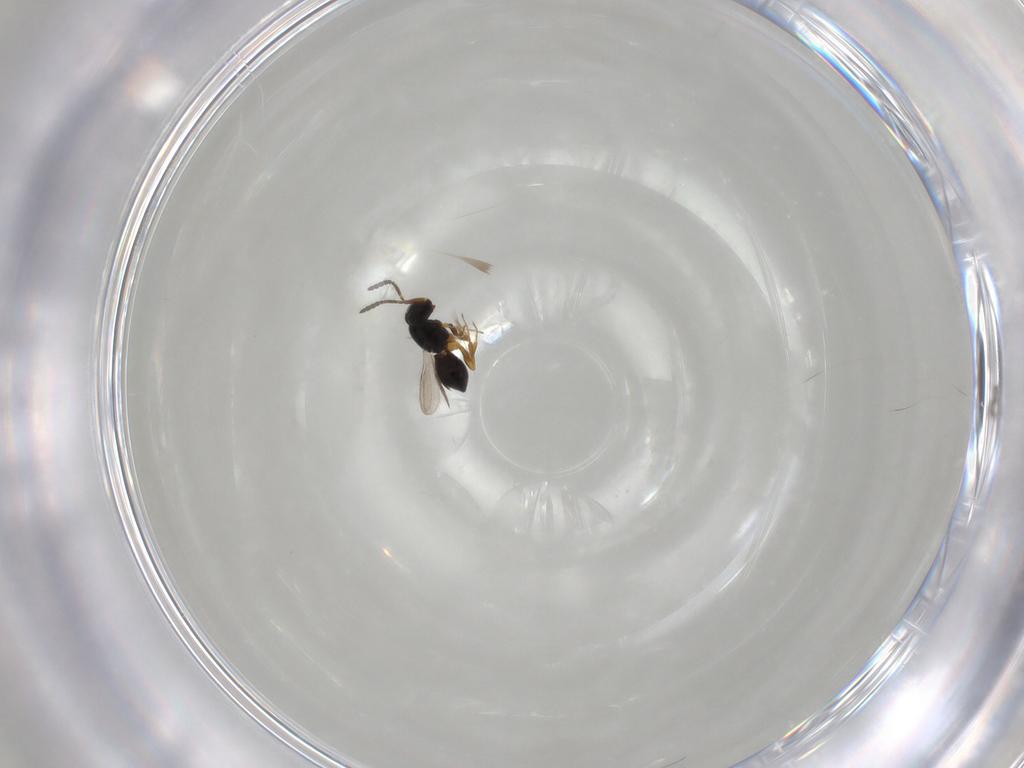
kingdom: Animalia
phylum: Arthropoda
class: Insecta
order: Hymenoptera
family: Scelionidae
